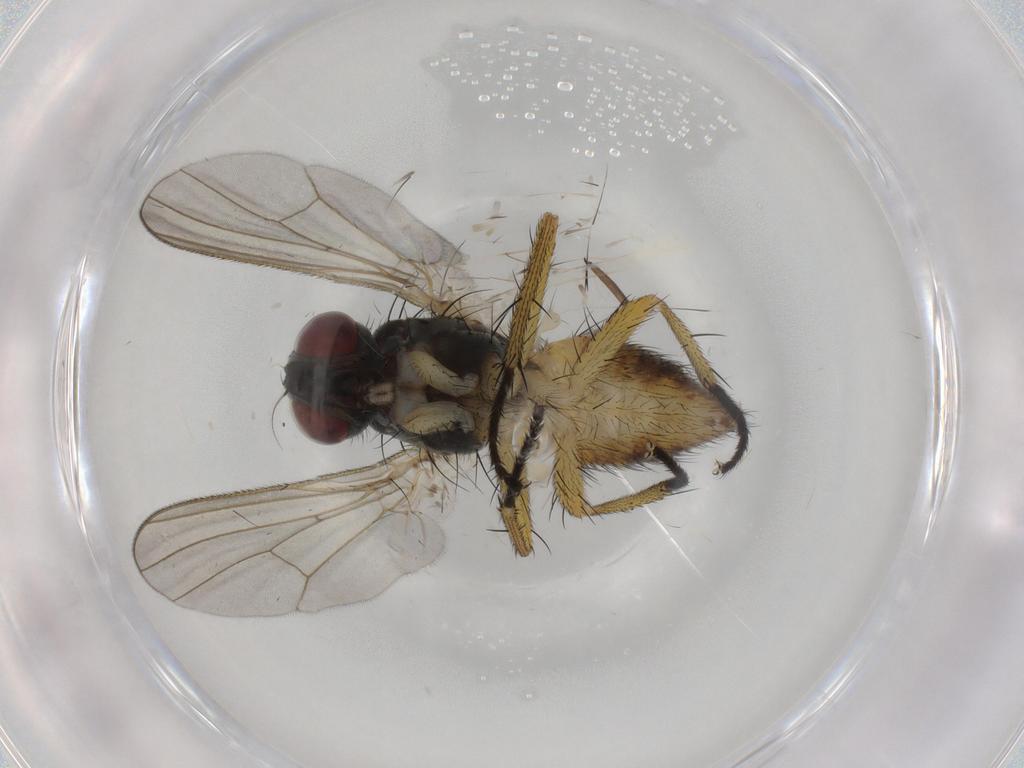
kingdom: Animalia
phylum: Arthropoda
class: Insecta
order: Diptera
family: Muscidae
